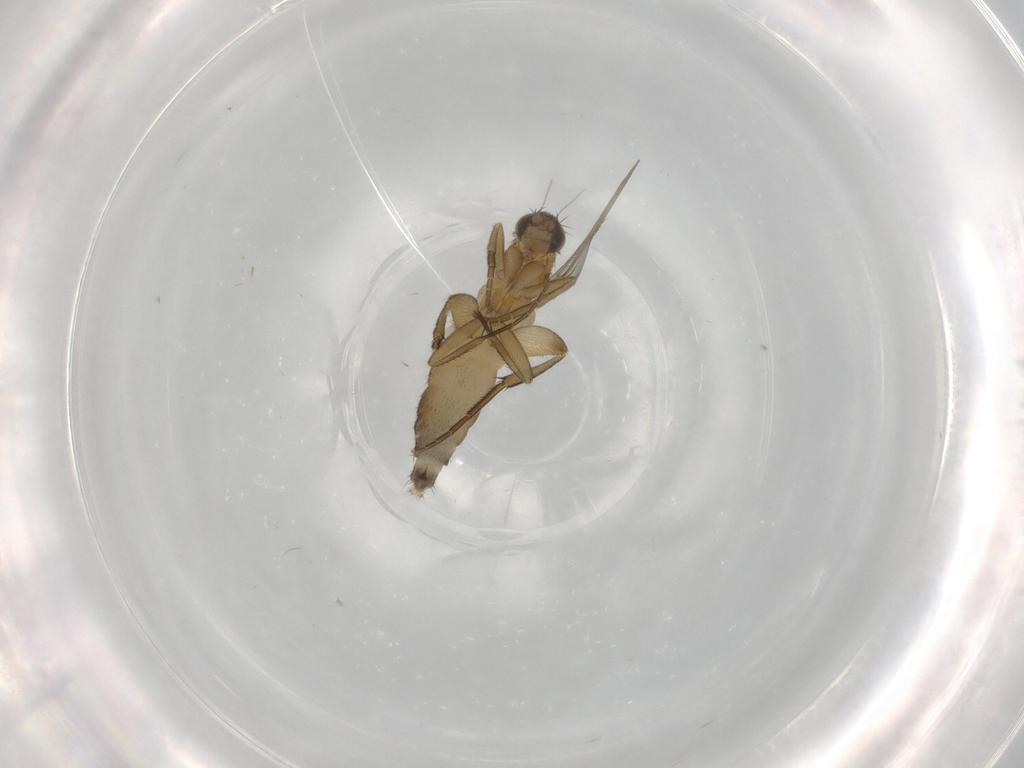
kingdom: Animalia
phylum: Arthropoda
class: Insecta
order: Diptera
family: Phoridae
